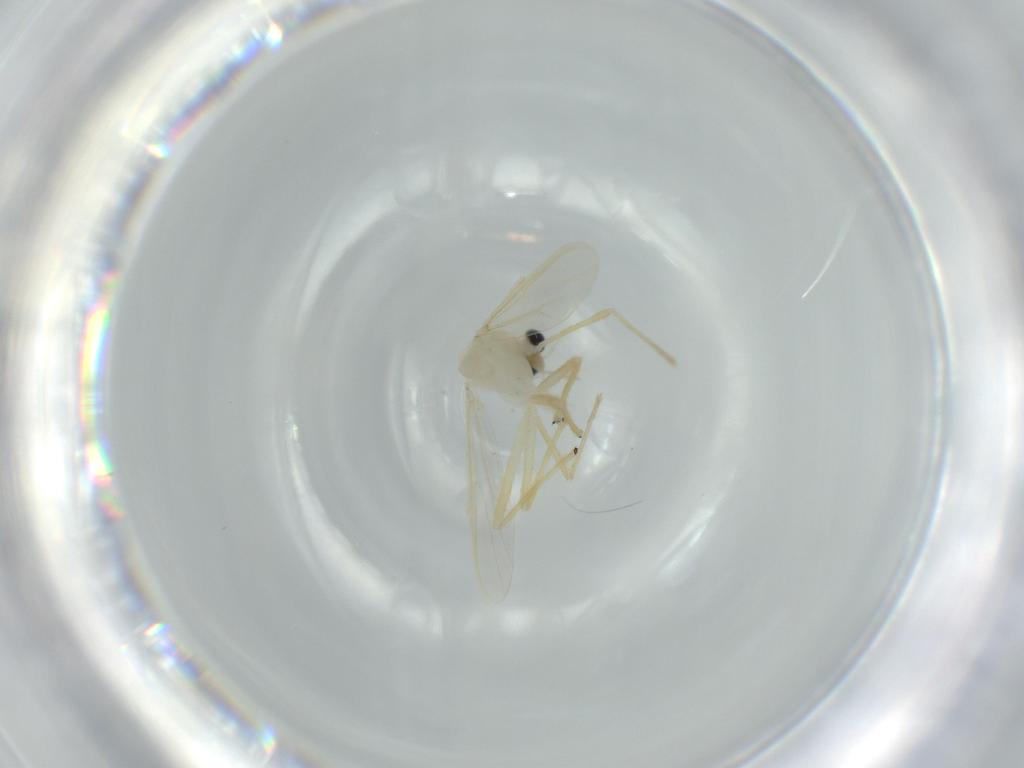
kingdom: Animalia
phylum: Arthropoda
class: Insecta
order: Diptera
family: Chironomidae
